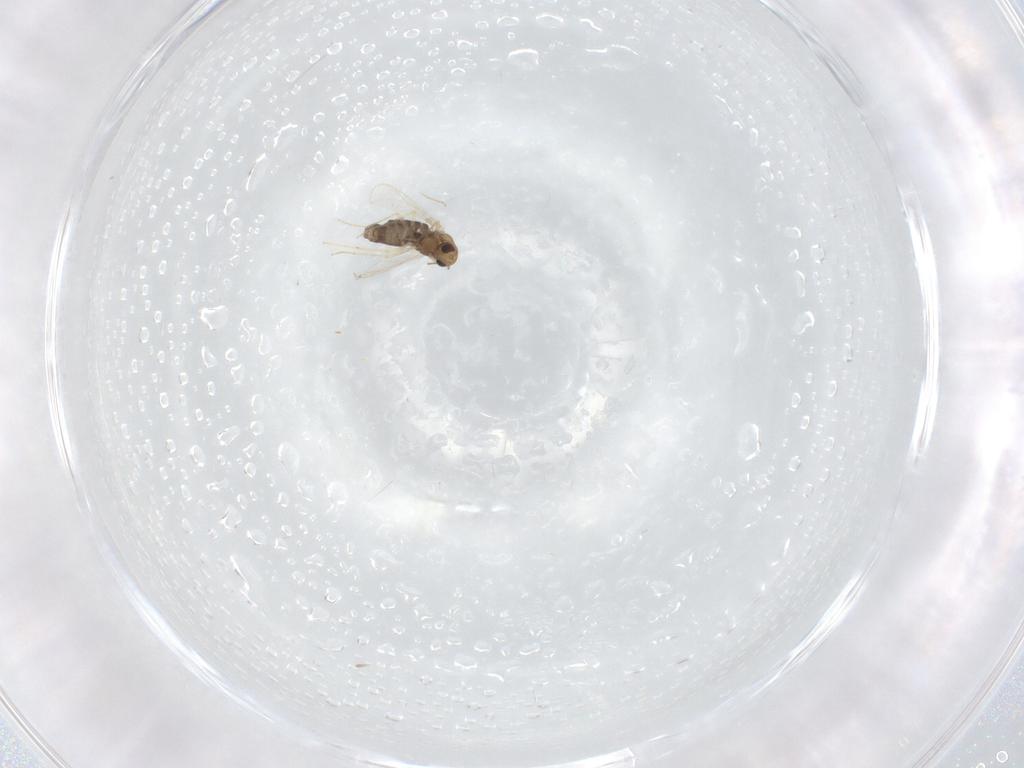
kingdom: Animalia
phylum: Arthropoda
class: Insecta
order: Diptera
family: Chironomidae
